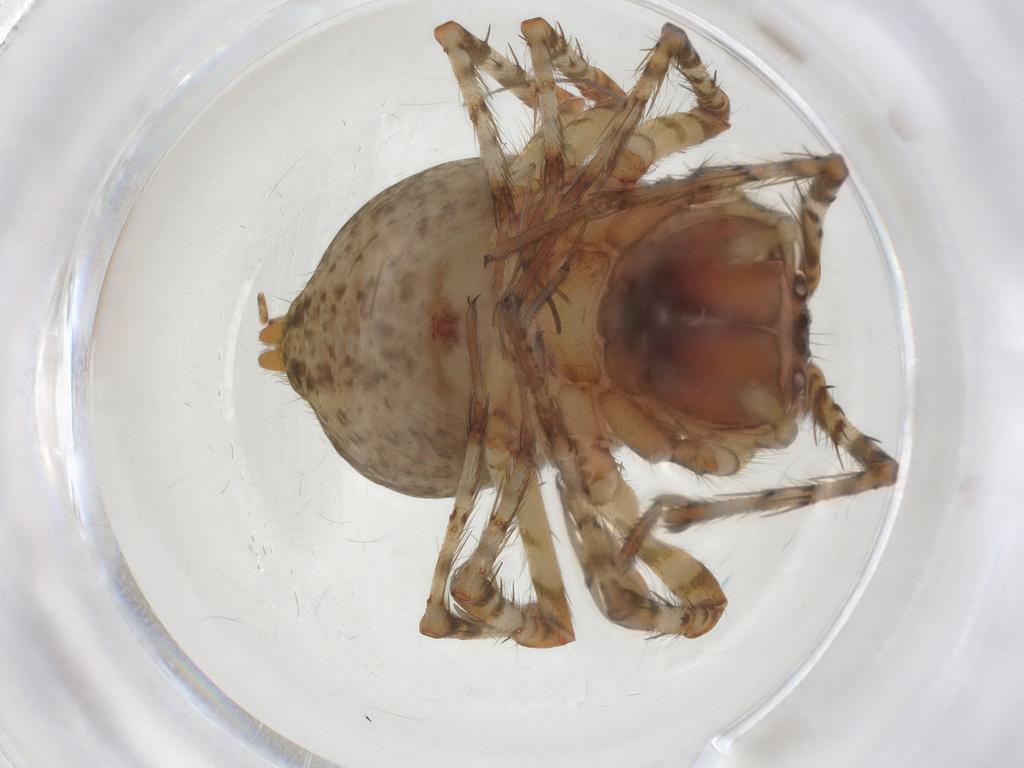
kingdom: Animalia
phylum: Arthropoda
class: Arachnida
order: Araneae
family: Desidae
